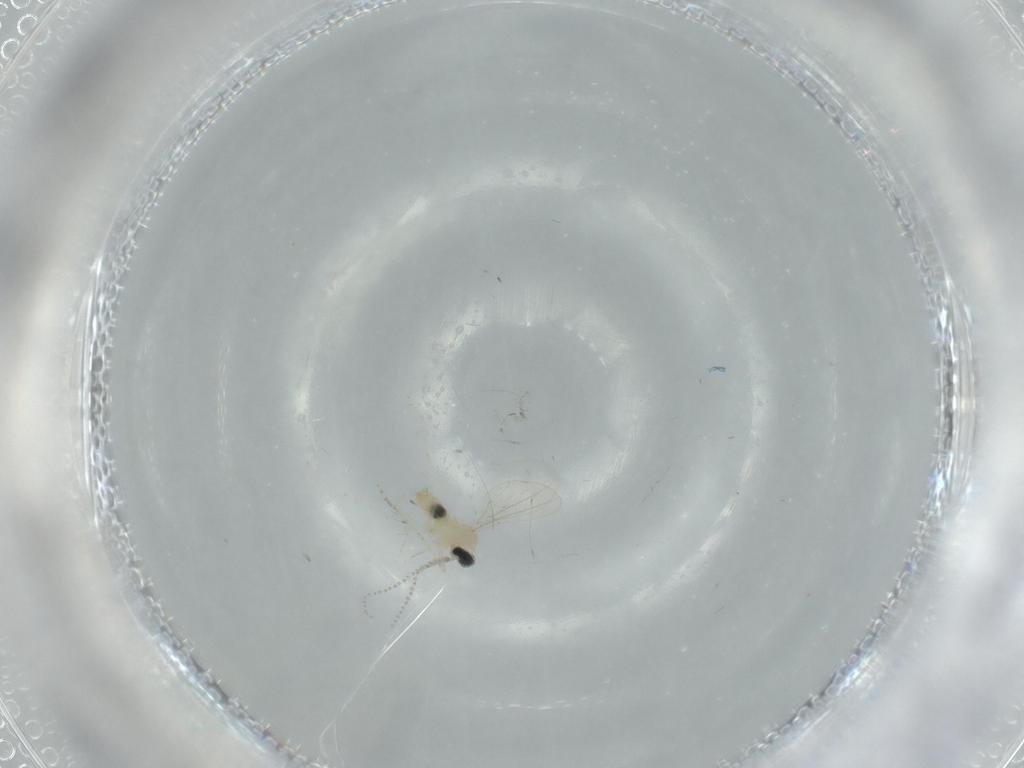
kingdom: Animalia
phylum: Arthropoda
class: Insecta
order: Diptera
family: Cecidomyiidae
